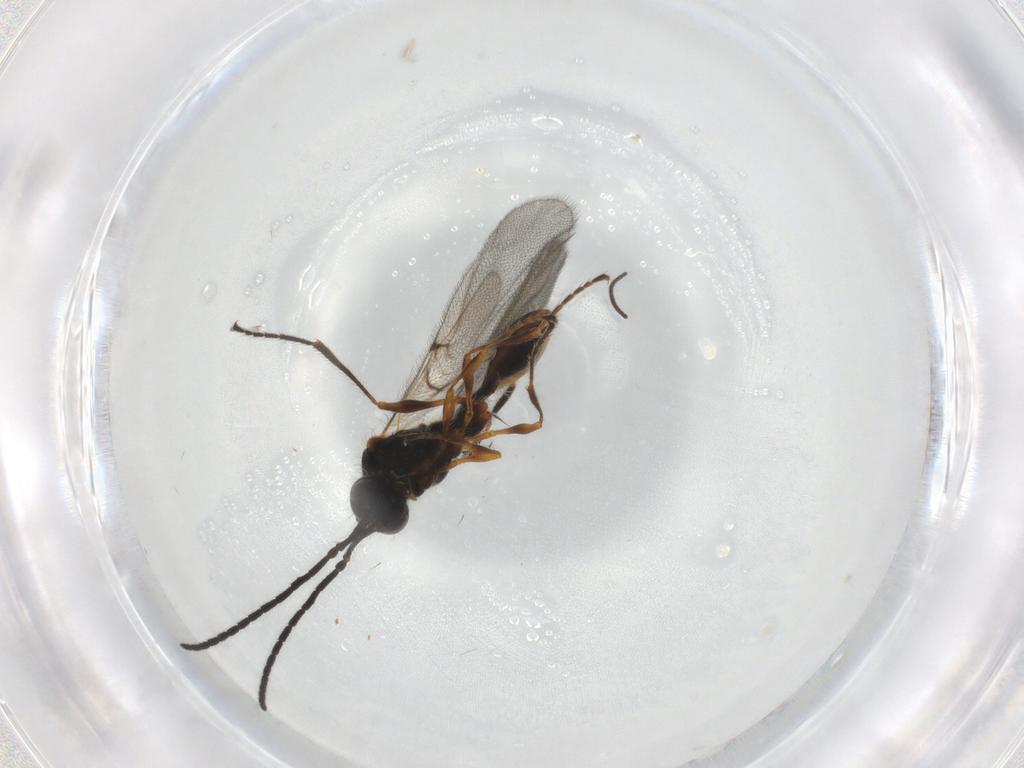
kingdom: Animalia
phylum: Arthropoda
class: Insecta
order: Hymenoptera
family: Diapriidae
